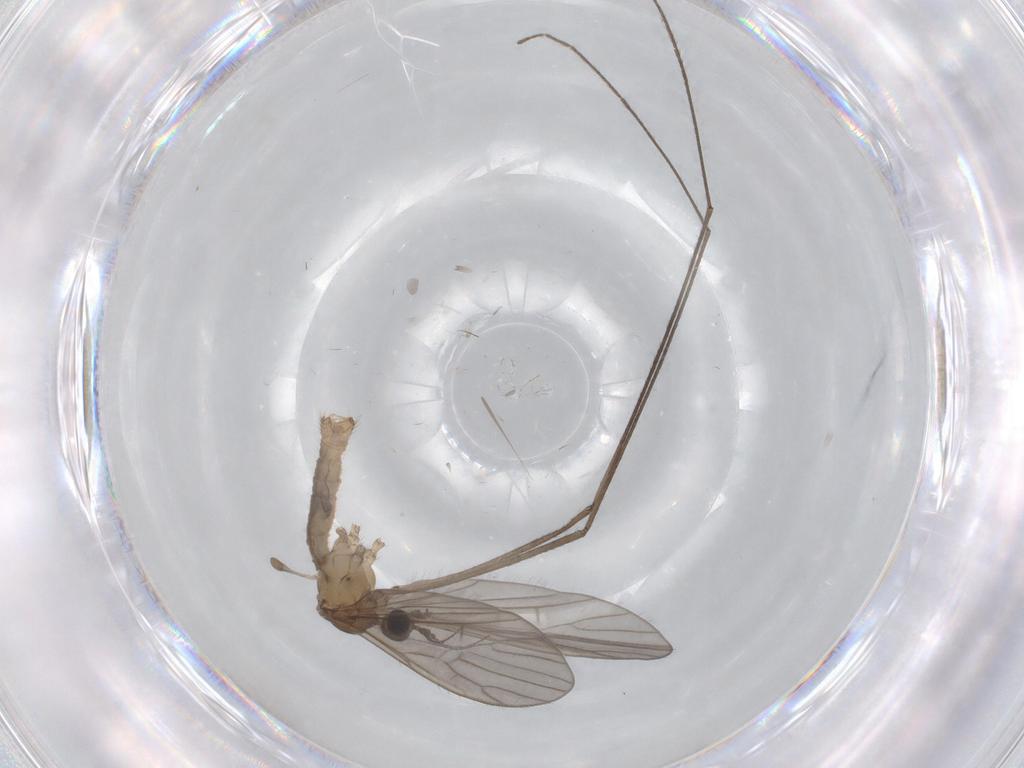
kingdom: Animalia
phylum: Arthropoda
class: Insecta
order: Diptera
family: Limoniidae
